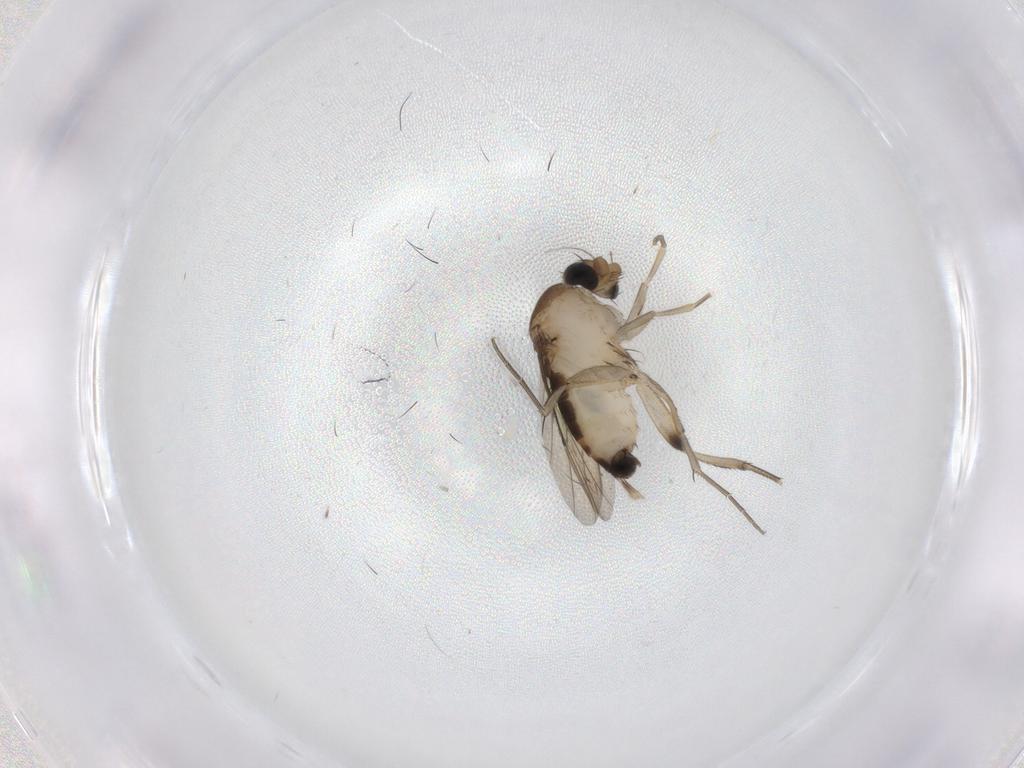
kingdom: Animalia
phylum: Arthropoda
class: Insecta
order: Diptera
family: Phoridae
